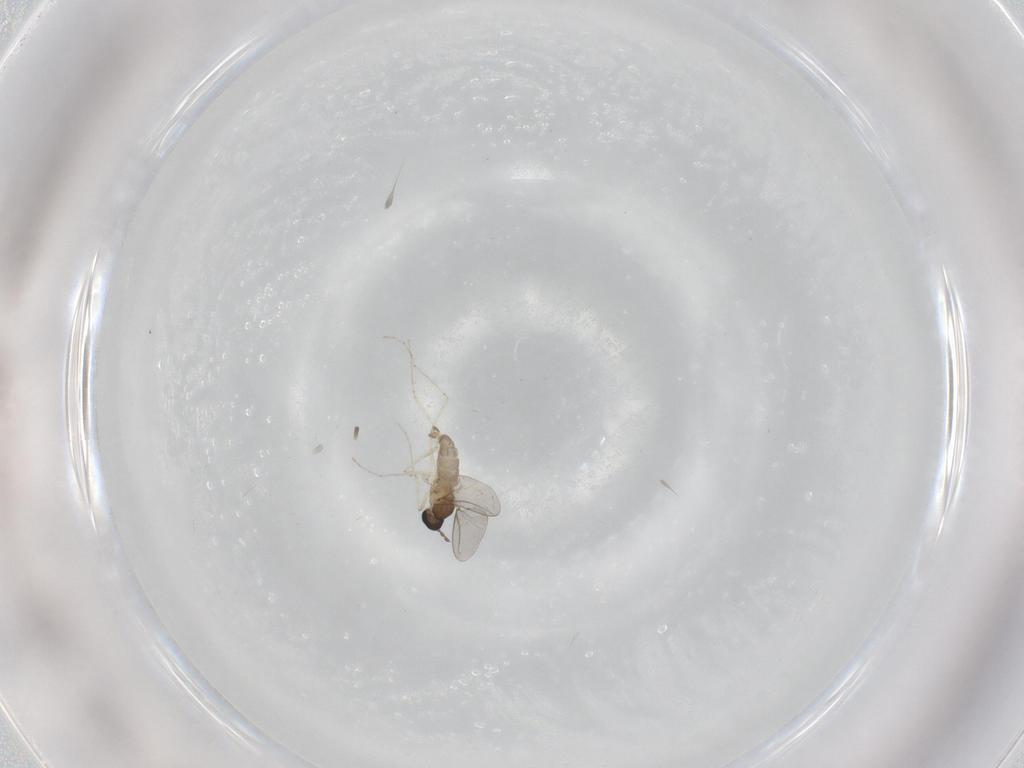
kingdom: Animalia
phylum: Arthropoda
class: Insecta
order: Diptera
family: Cecidomyiidae
